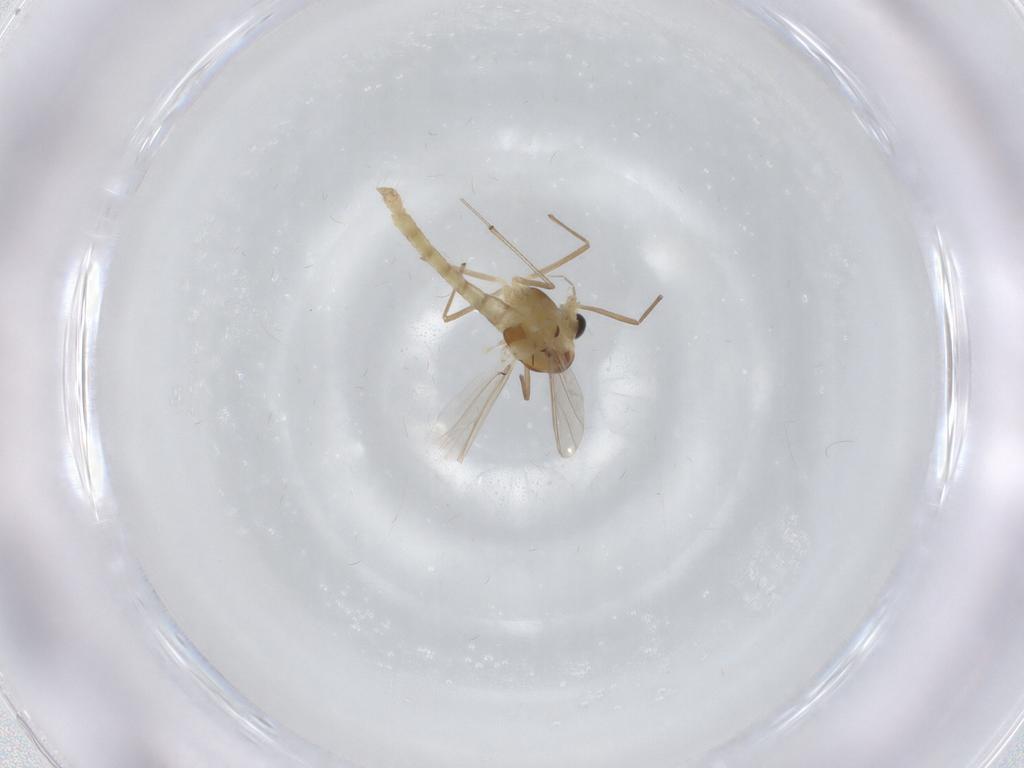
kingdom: Animalia
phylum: Arthropoda
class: Insecta
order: Diptera
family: Chironomidae
